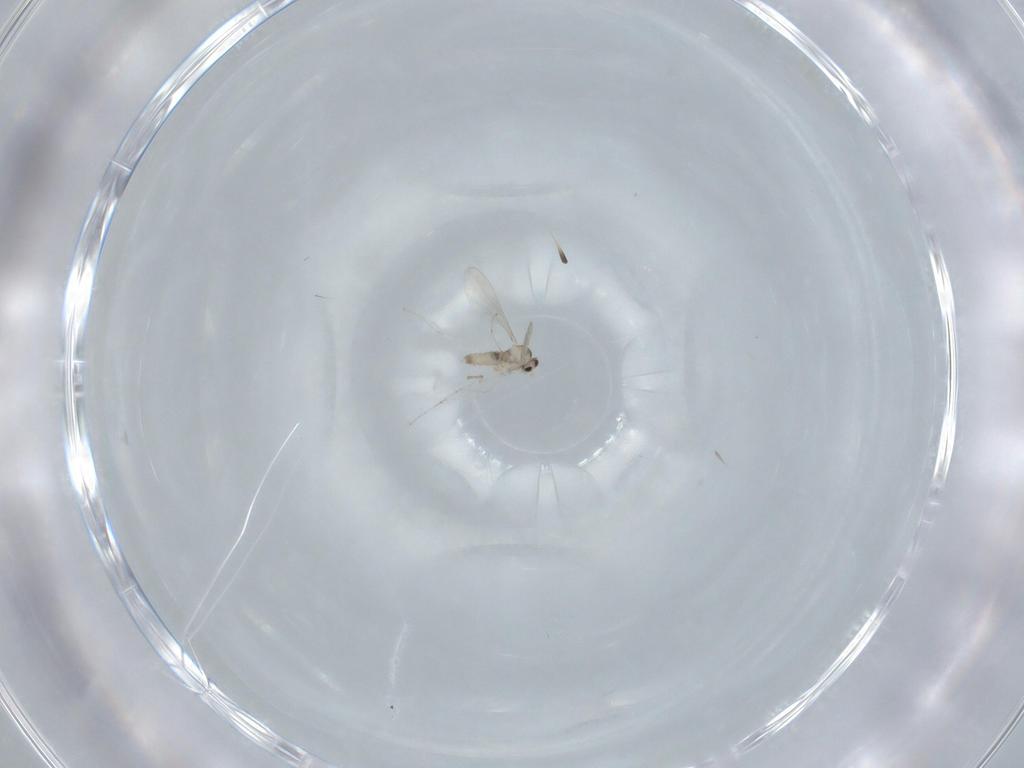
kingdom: Animalia
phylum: Arthropoda
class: Insecta
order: Diptera
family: Cecidomyiidae
